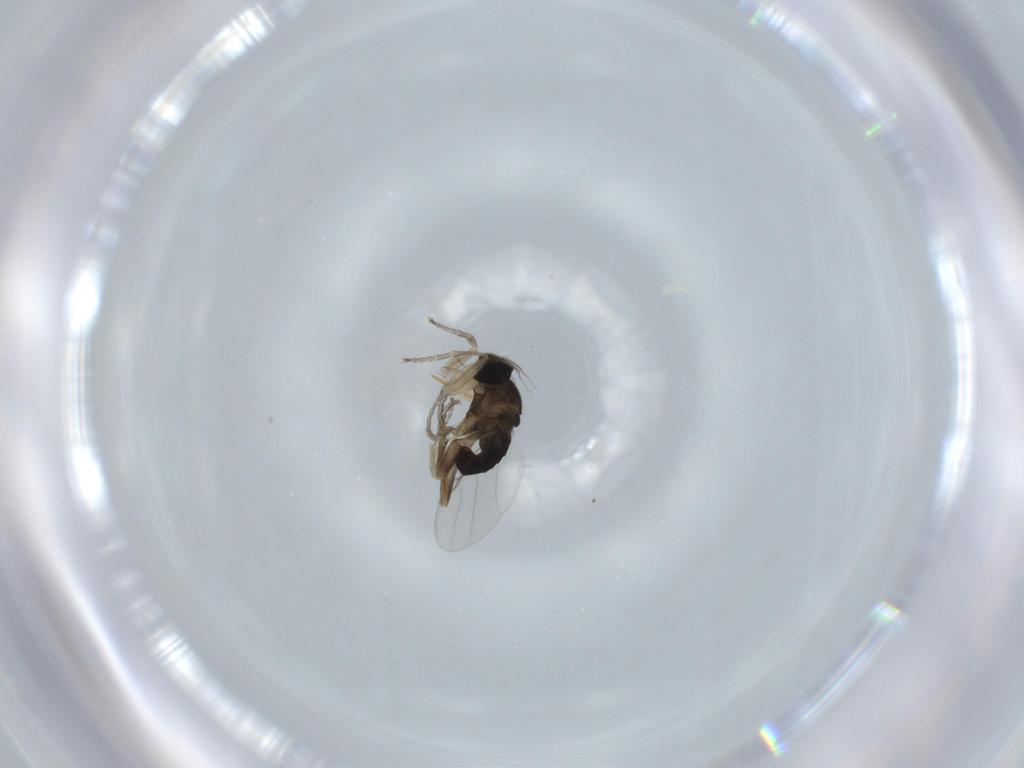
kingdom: Animalia
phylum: Arthropoda
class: Insecta
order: Diptera
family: Phoridae
